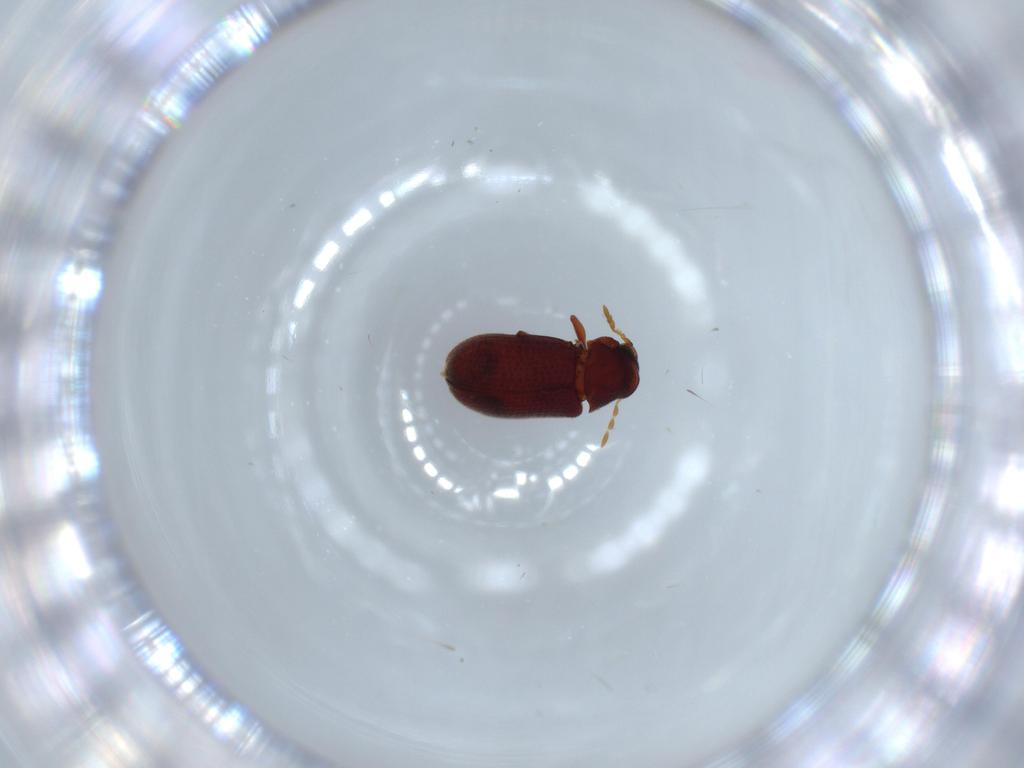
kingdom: Animalia
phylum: Arthropoda
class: Insecta
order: Coleoptera
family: Anobiidae
